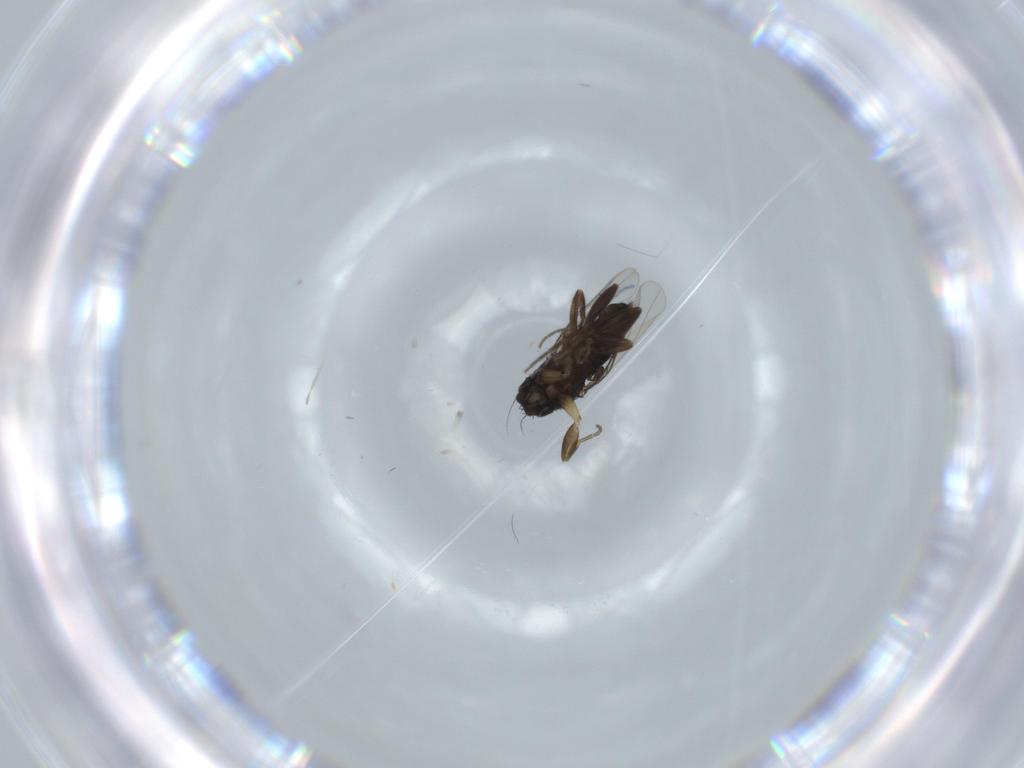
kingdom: Animalia
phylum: Arthropoda
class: Insecta
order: Diptera
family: Phoridae
